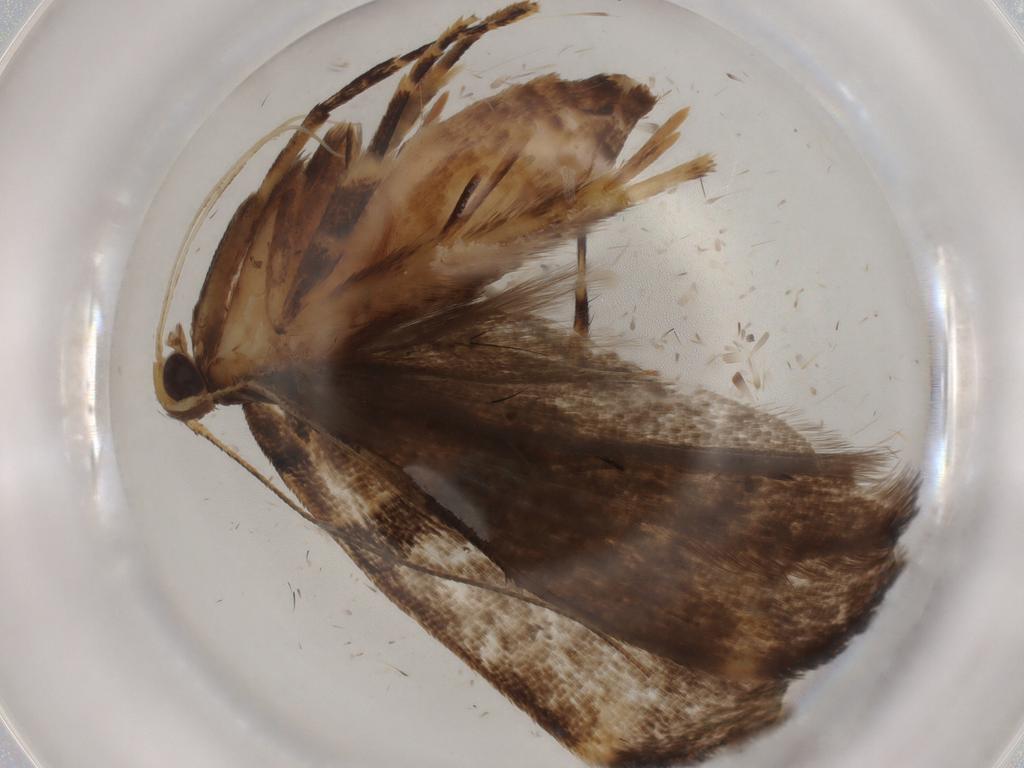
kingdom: Animalia
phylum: Arthropoda
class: Insecta
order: Lepidoptera
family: Gelechiidae
